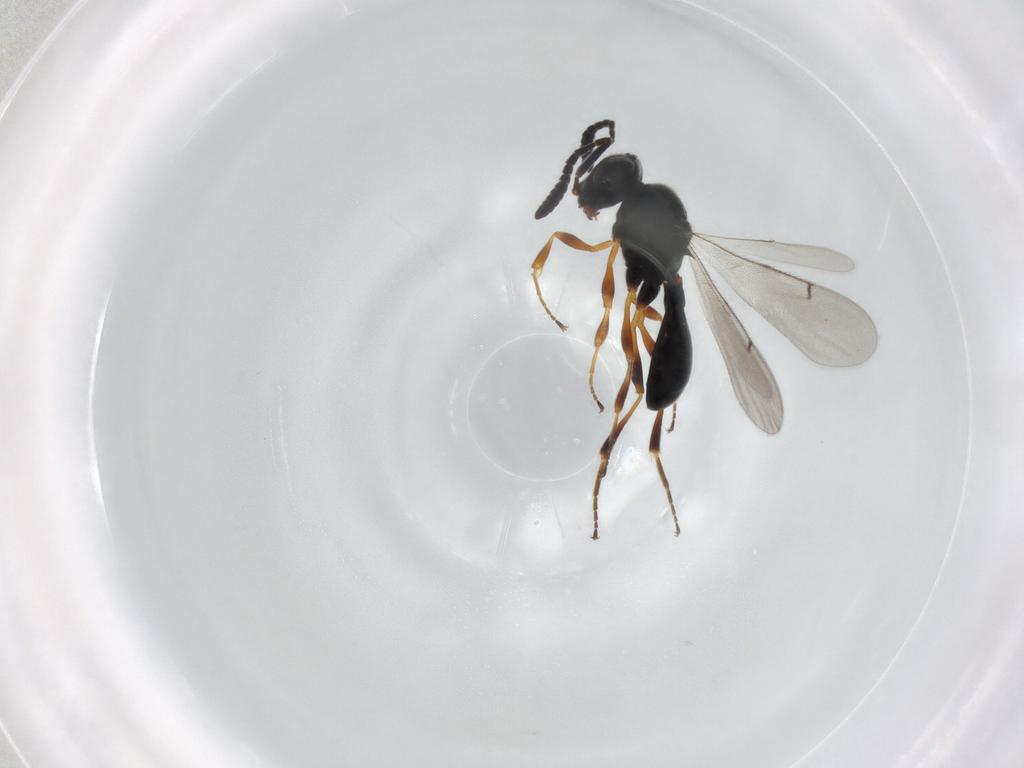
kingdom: Animalia
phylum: Arthropoda
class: Insecta
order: Hymenoptera
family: Scelionidae
